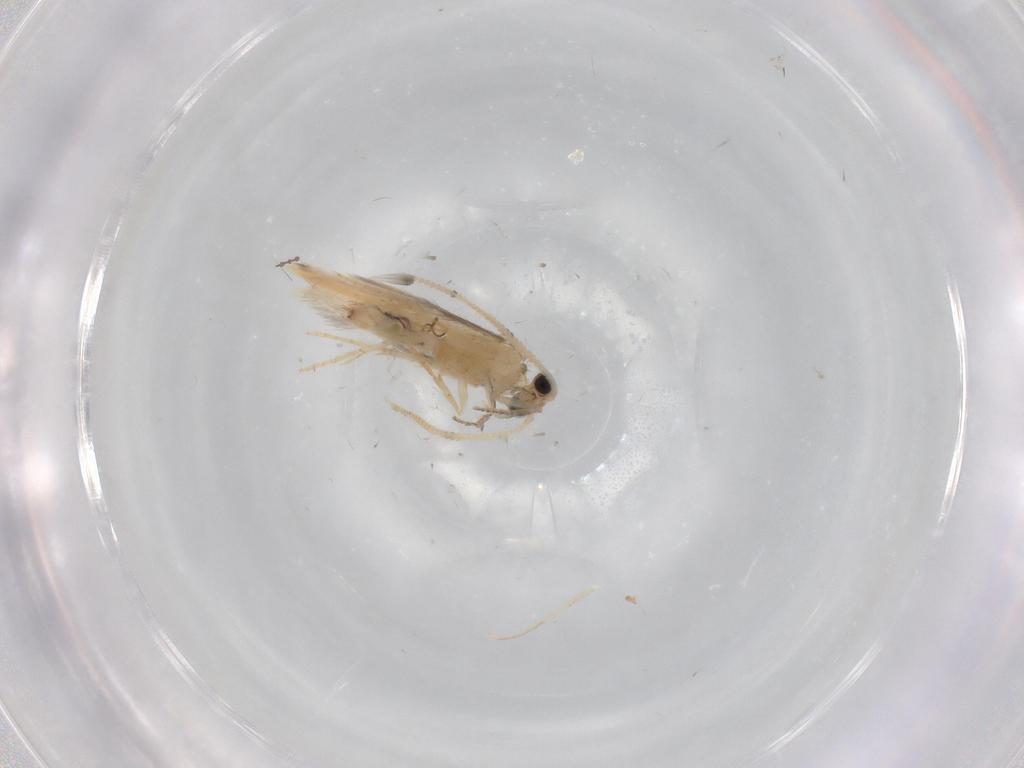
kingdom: Animalia
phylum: Arthropoda
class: Insecta
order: Trichoptera
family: Hydroptilidae
